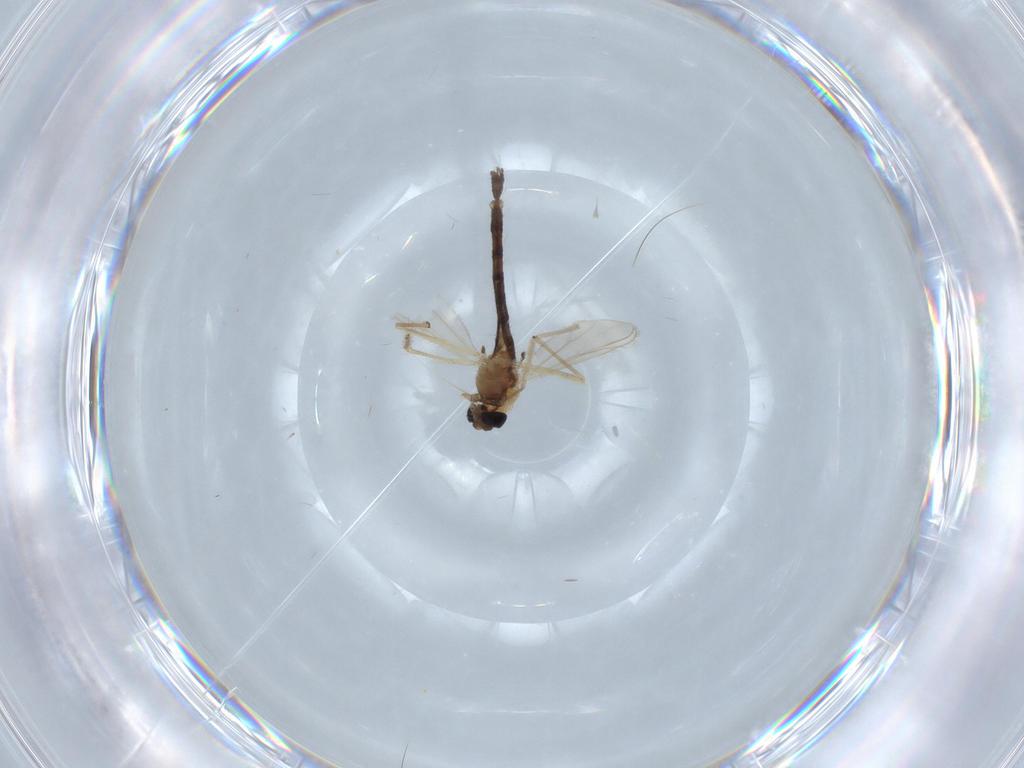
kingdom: Animalia
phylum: Arthropoda
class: Insecta
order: Diptera
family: Chironomidae
